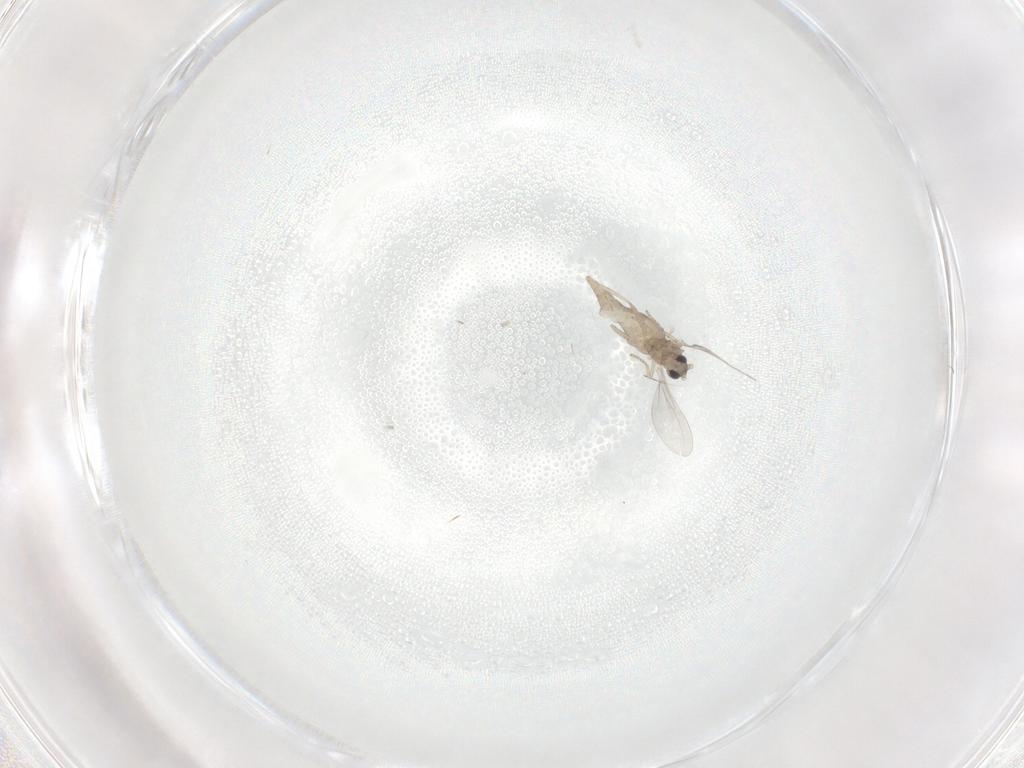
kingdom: Animalia
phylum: Arthropoda
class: Insecta
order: Diptera
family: Cecidomyiidae
